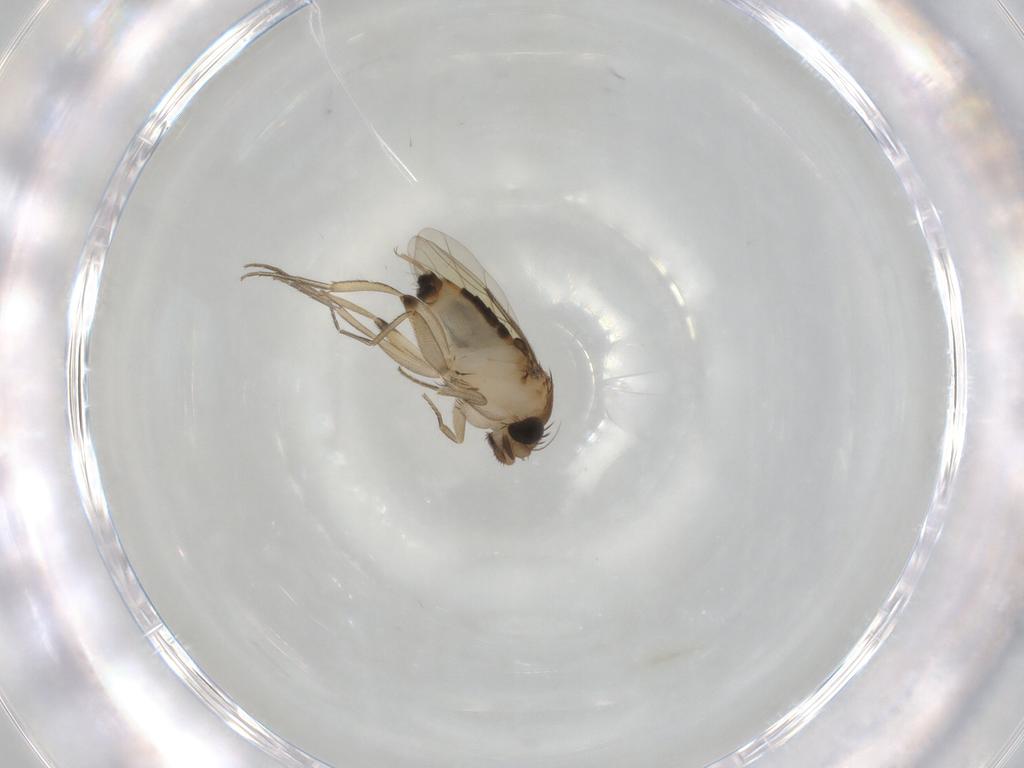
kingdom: Animalia
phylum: Arthropoda
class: Insecta
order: Diptera
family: Phoridae
